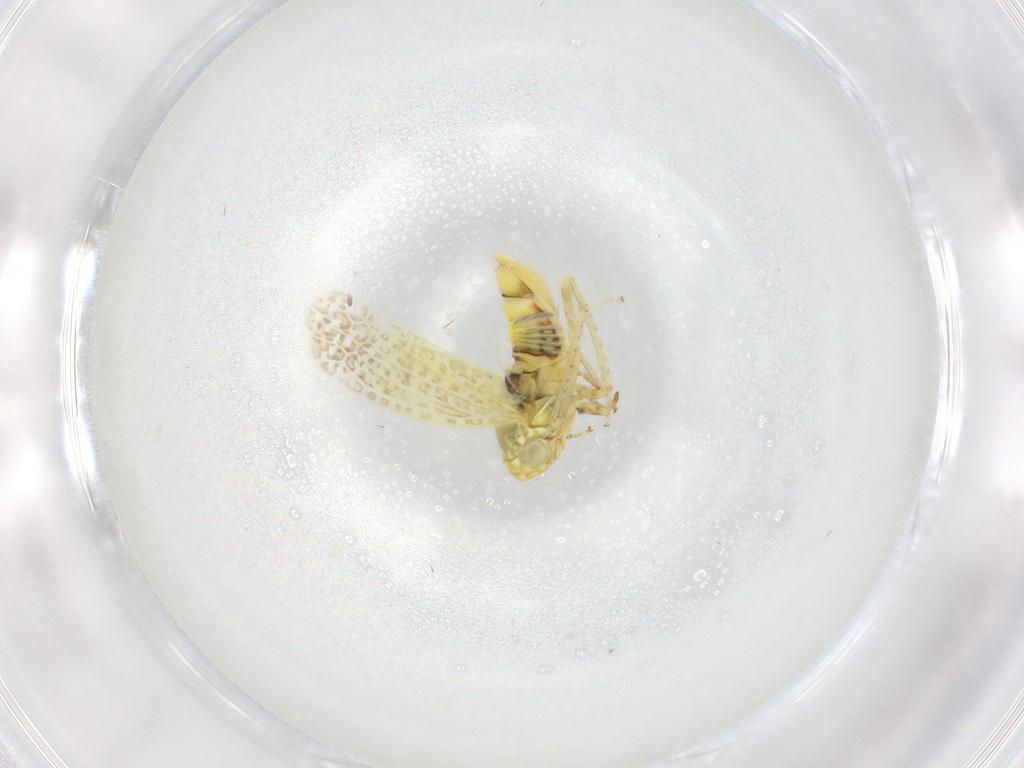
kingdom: Animalia
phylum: Arthropoda
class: Insecta
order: Hemiptera
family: Cicadellidae
